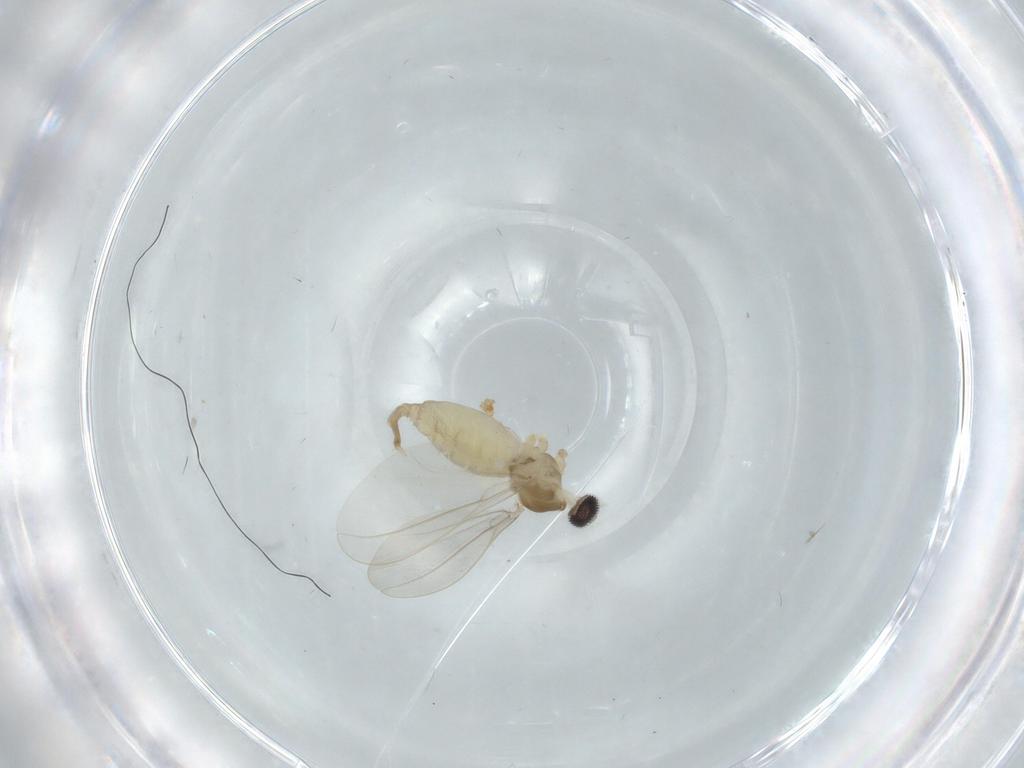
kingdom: Animalia
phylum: Arthropoda
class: Insecta
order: Diptera
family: Cecidomyiidae
